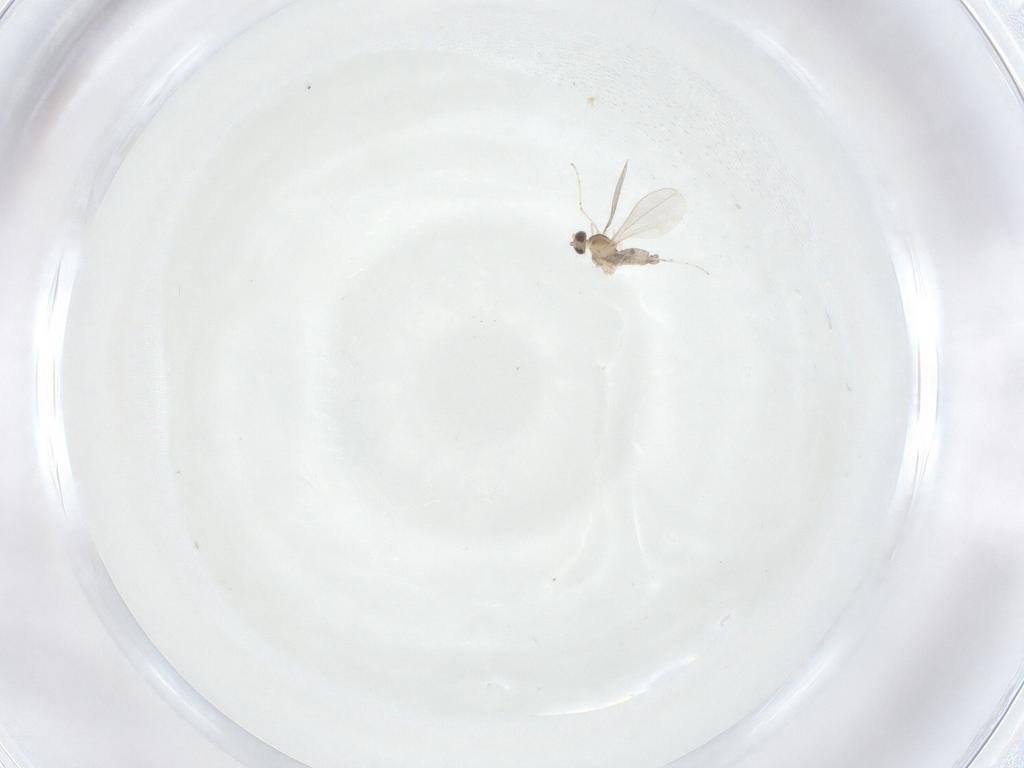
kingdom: Animalia
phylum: Arthropoda
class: Insecta
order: Diptera
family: Cecidomyiidae
